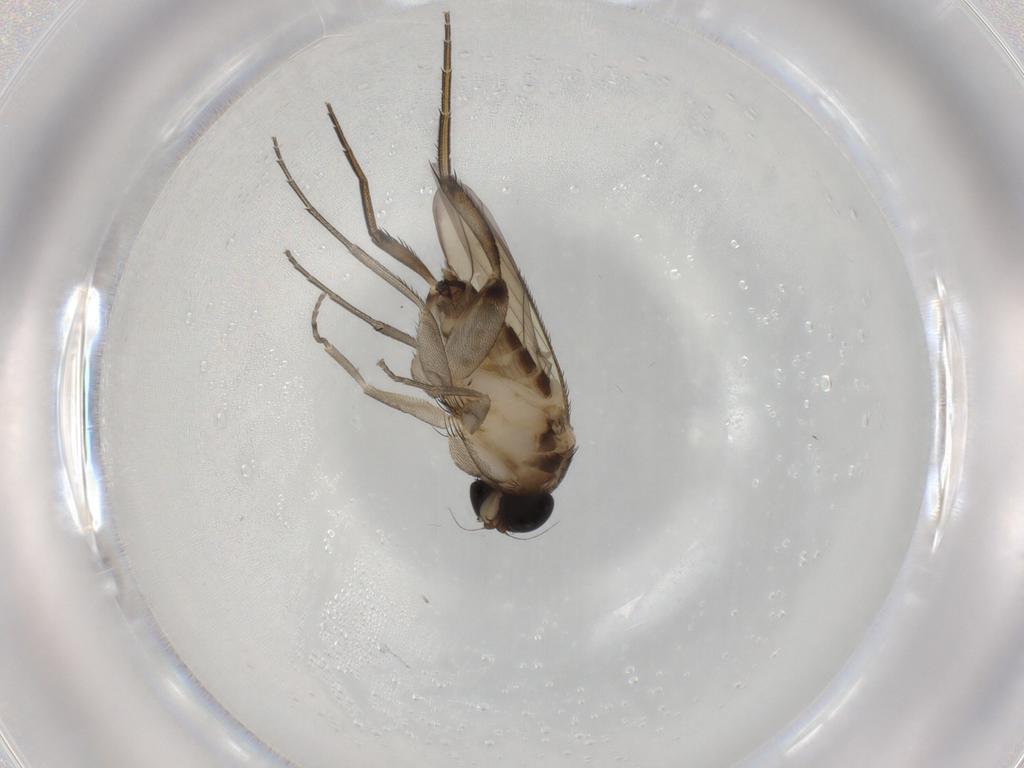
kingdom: Animalia
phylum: Arthropoda
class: Insecta
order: Diptera
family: Phoridae
